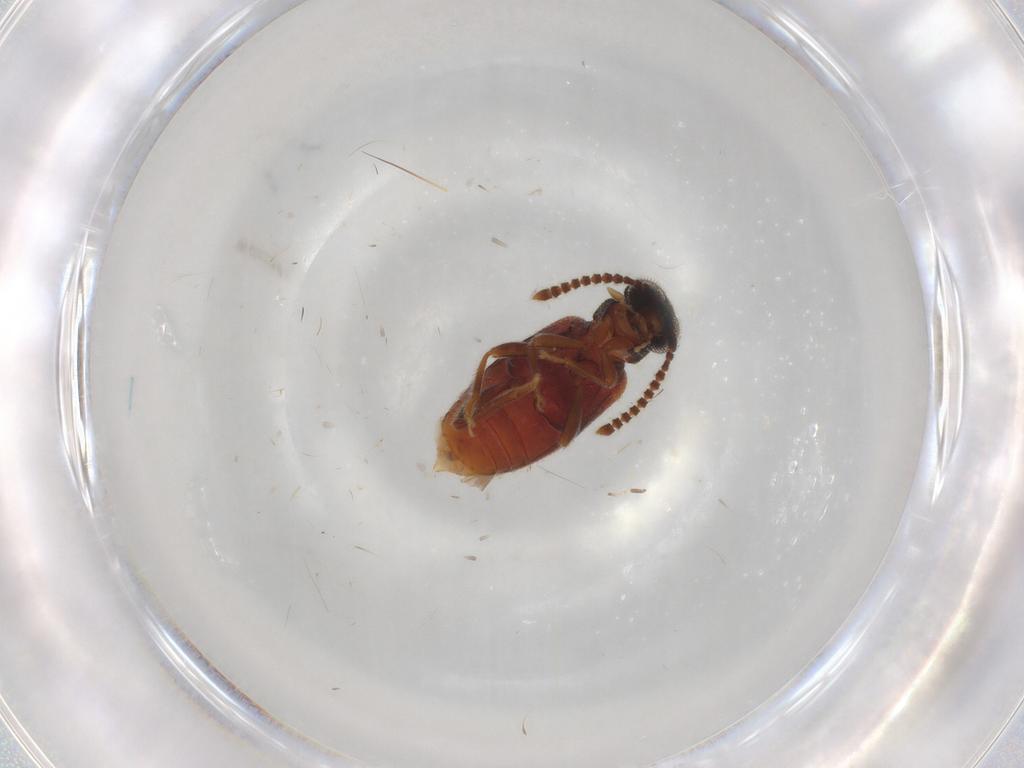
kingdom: Animalia
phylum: Arthropoda
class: Insecta
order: Coleoptera
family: Aderidae
